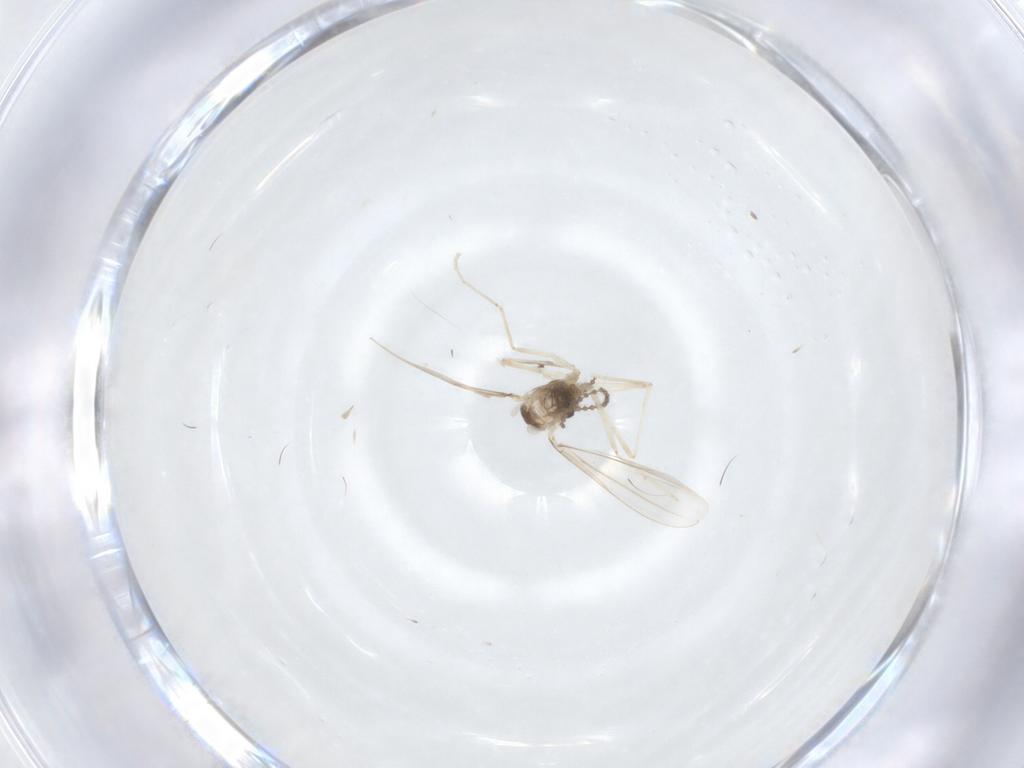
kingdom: Animalia
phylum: Arthropoda
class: Insecta
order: Diptera
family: Cecidomyiidae
